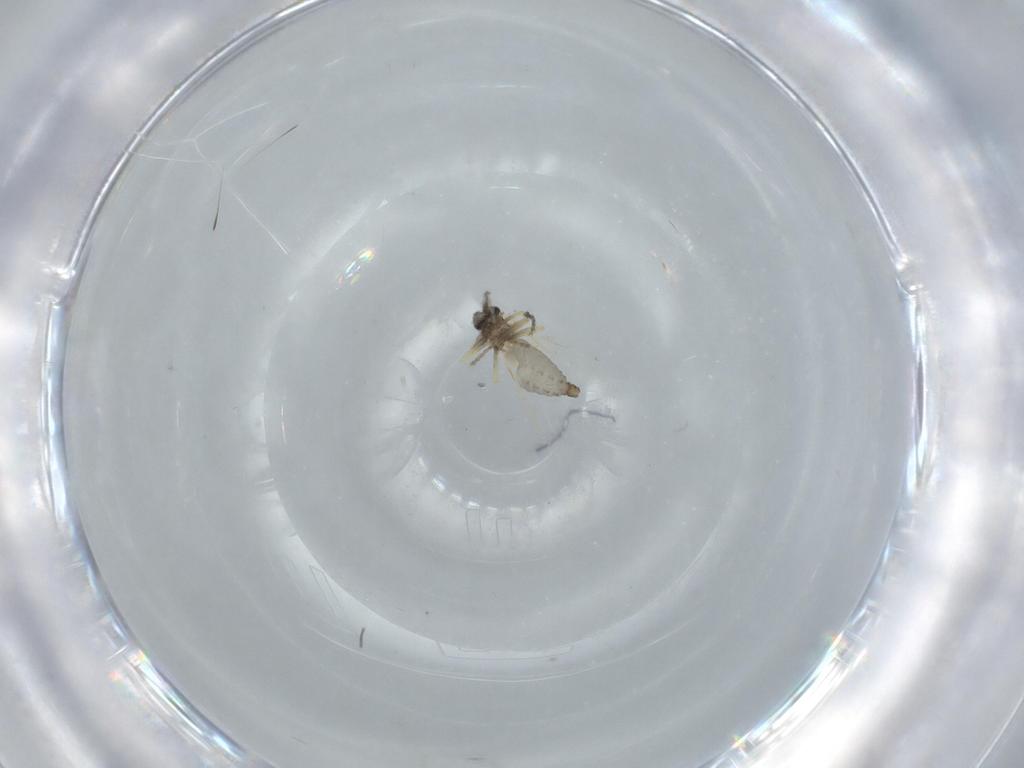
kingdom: Animalia
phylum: Arthropoda
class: Insecta
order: Diptera
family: Ceratopogonidae
